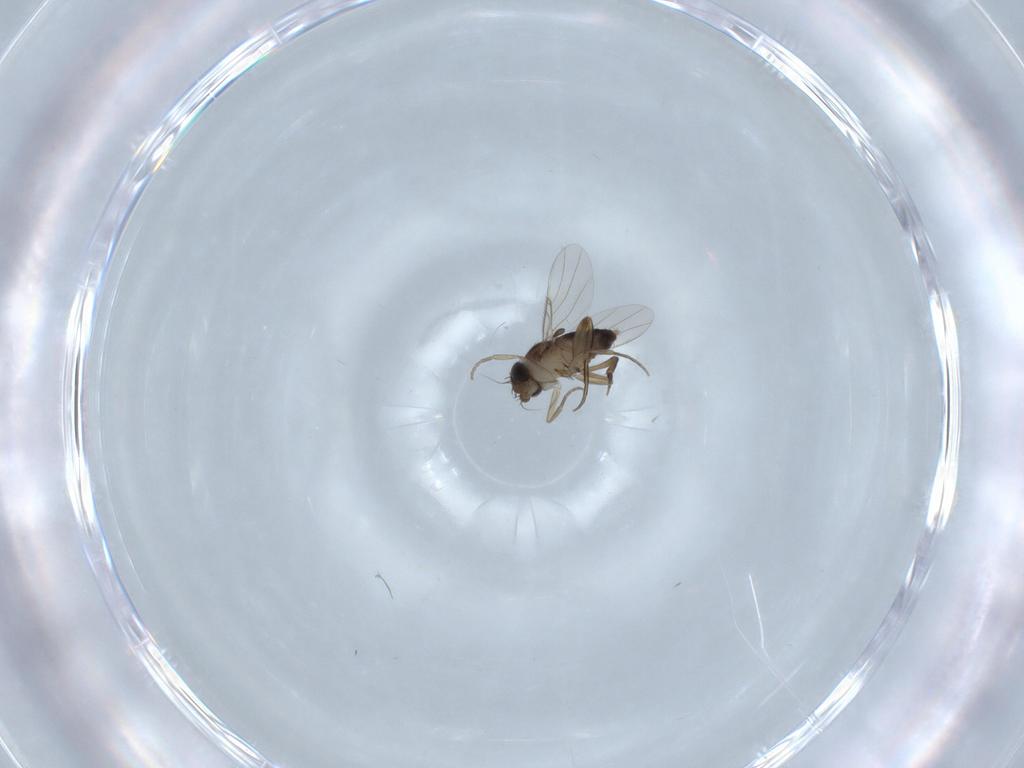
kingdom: Animalia
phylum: Arthropoda
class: Insecta
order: Diptera
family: Phoridae
